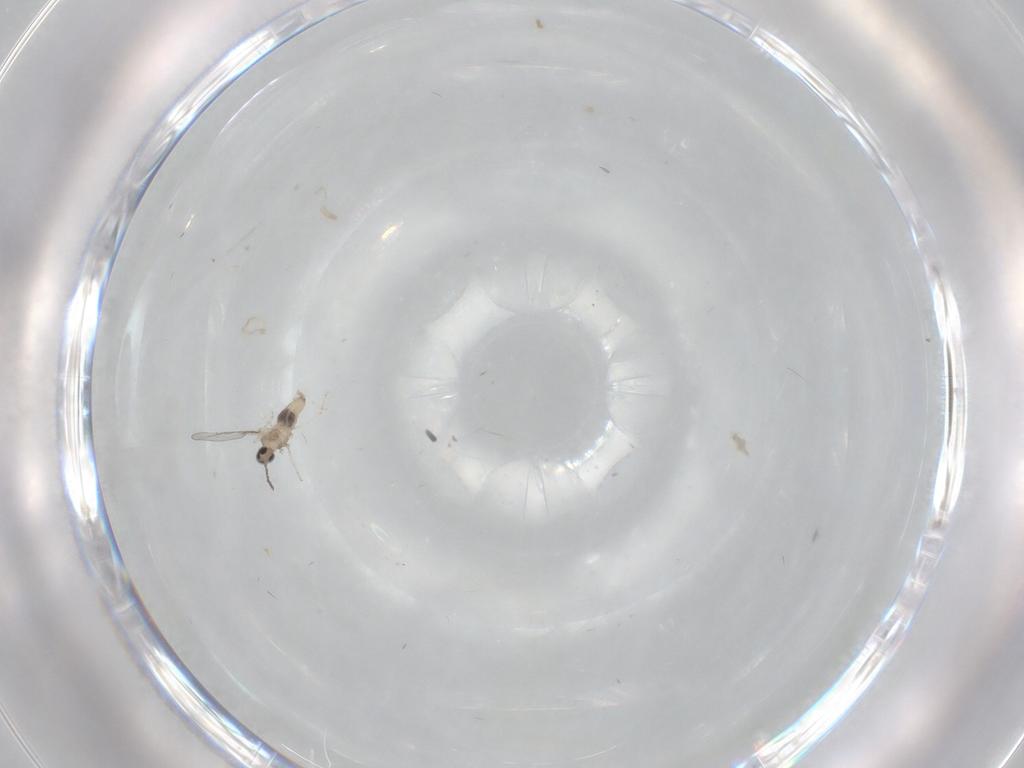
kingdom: Animalia
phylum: Arthropoda
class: Insecta
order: Diptera
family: Cecidomyiidae
